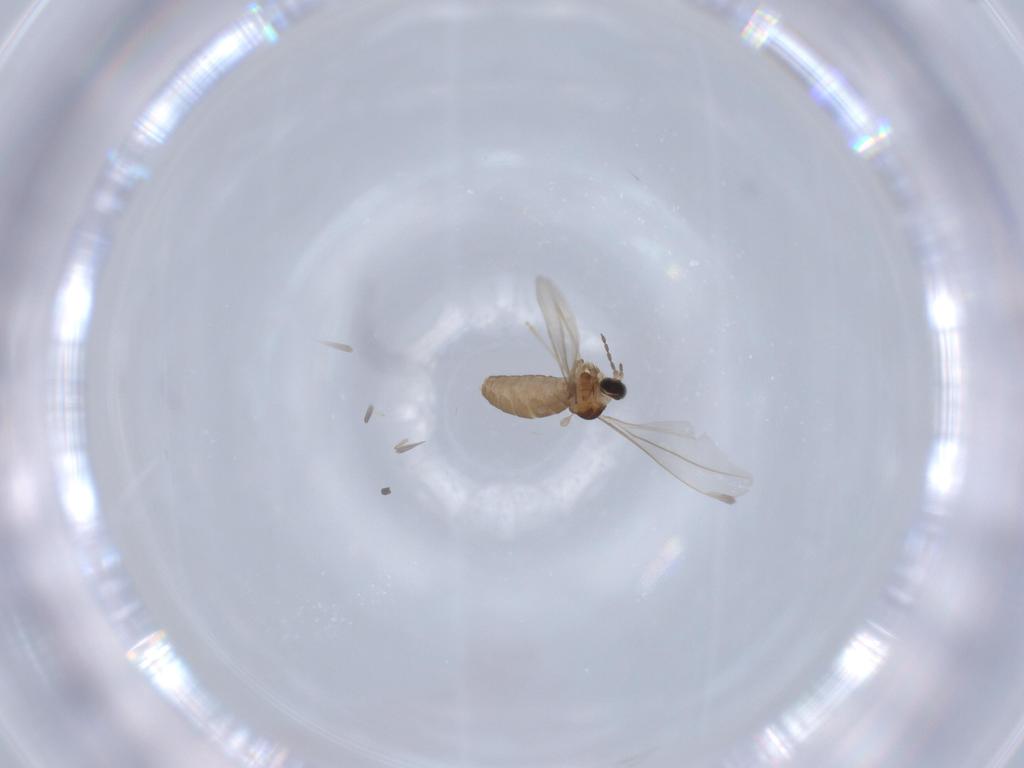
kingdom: Animalia
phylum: Arthropoda
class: Insecta
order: Diptera
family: Cecidomyiidae
